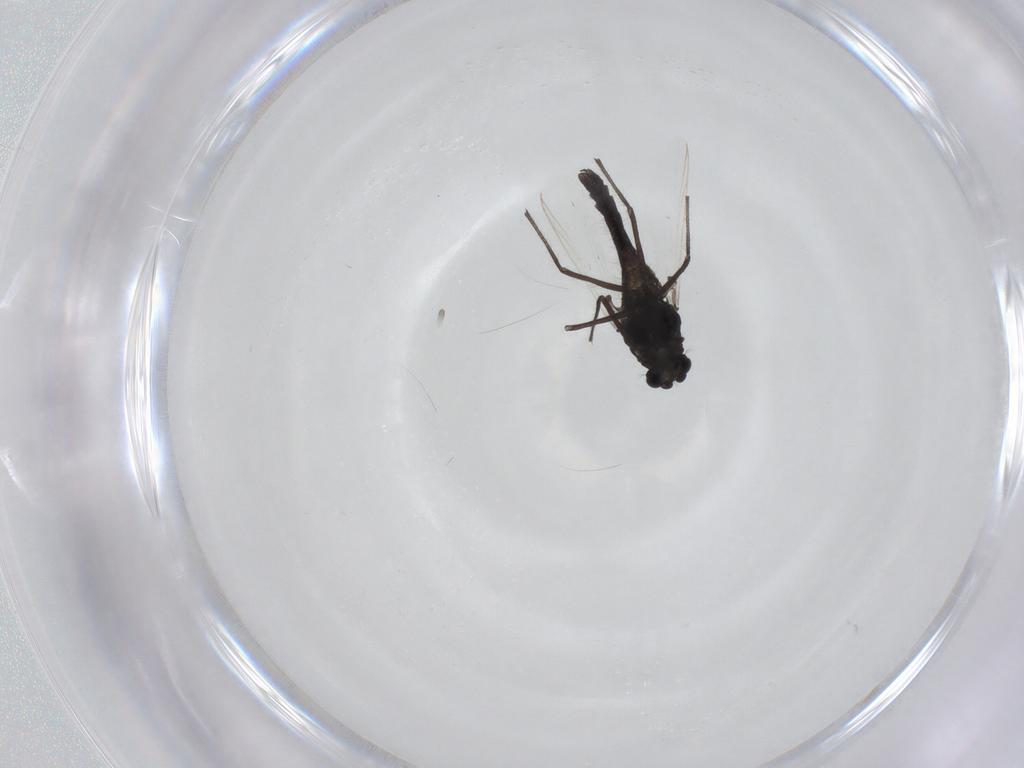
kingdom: Animalia
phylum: Arthropoda
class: Insecta
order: Diptera
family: Chironomidae
